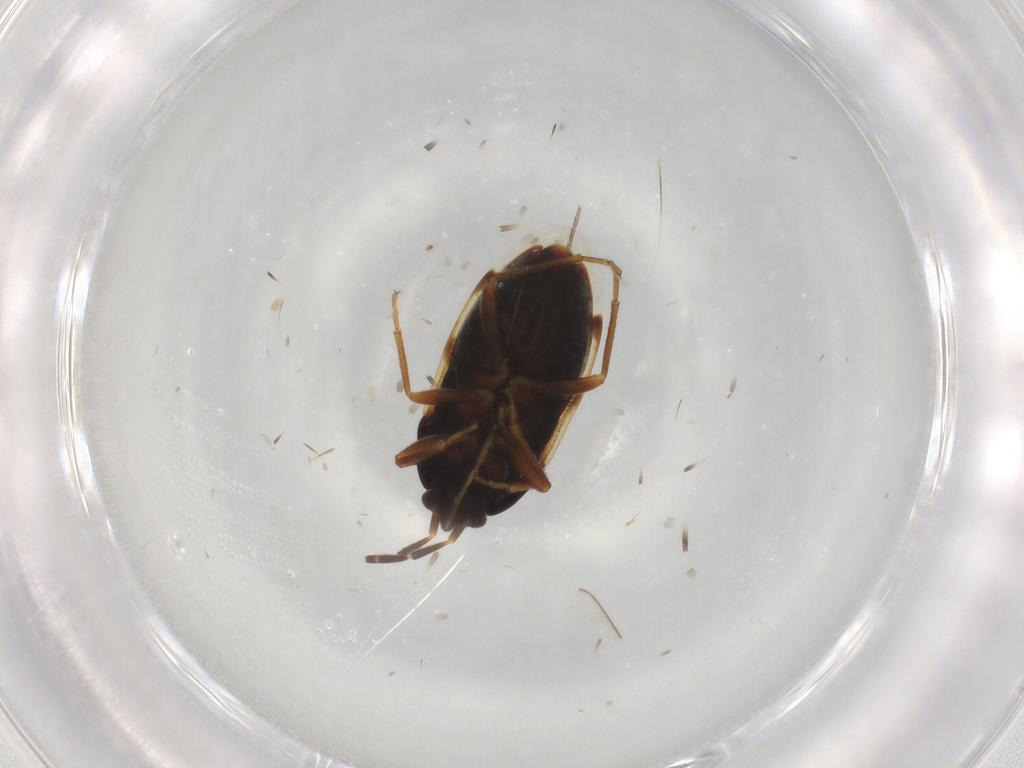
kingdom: Animalia
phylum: Arthropoda
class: Insecta
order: Hemiptera
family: Rhyparochromidae
